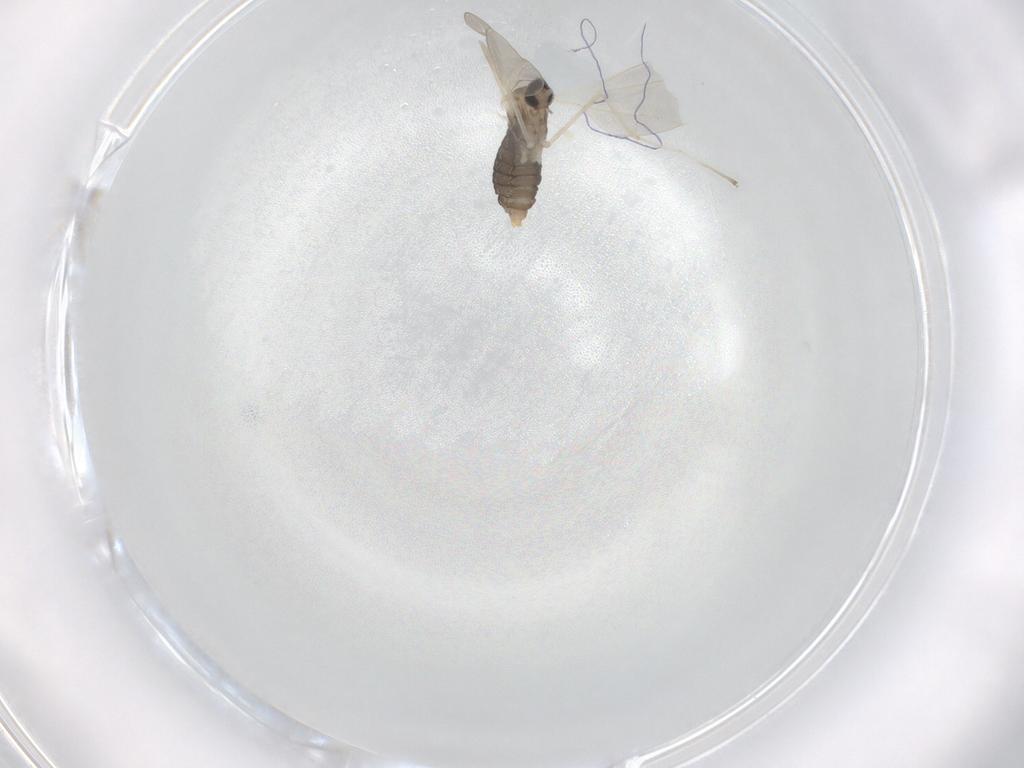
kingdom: Animalia
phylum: Arthropoda
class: Insecta
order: Diptera
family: Cecidomyiidae
